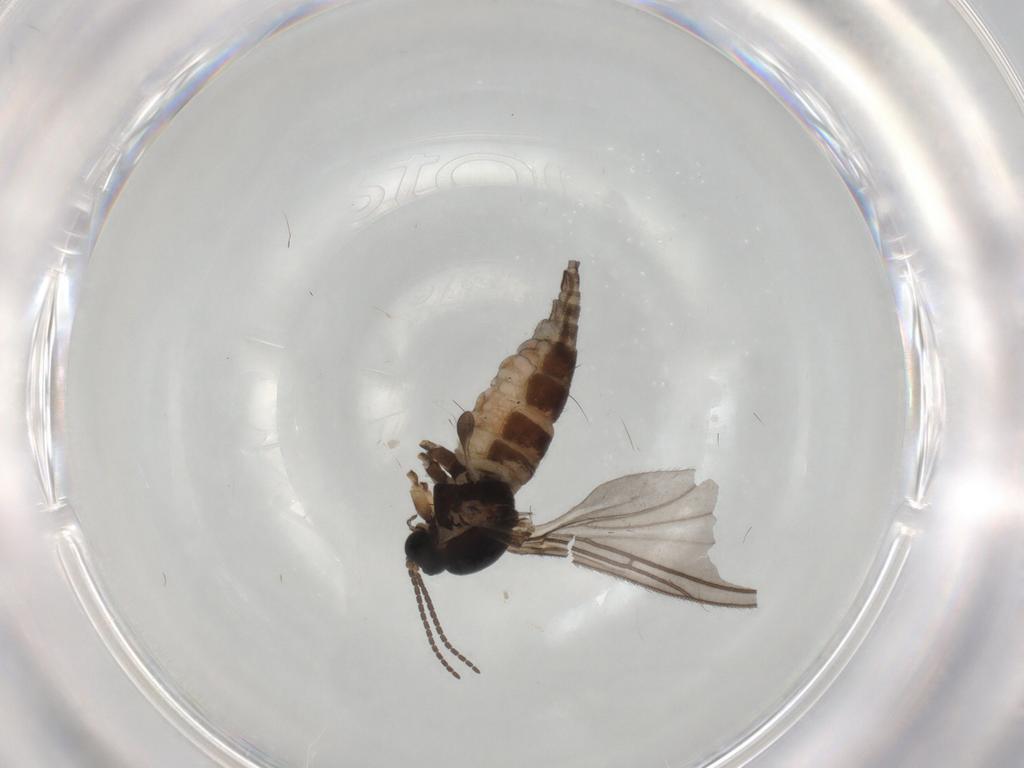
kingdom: Animalia
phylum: Arthropoda
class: Insecta
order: Diptera
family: Sciaridae
